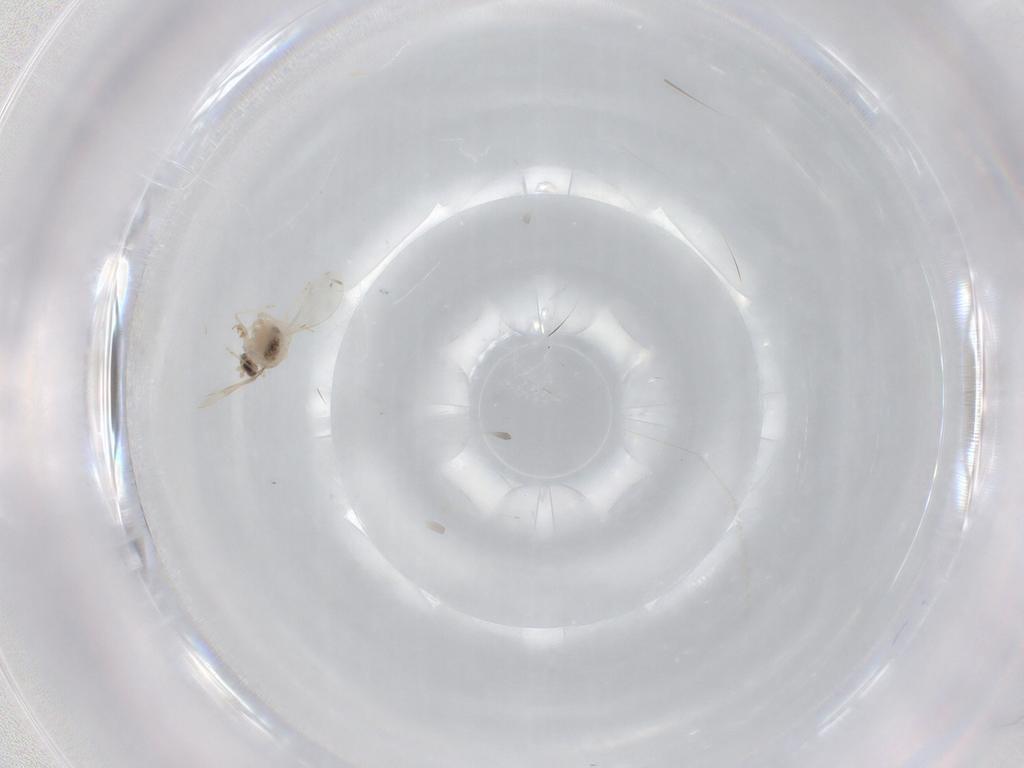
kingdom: Animalia
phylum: Arthropoda
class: Insecta
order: Diptera
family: Cecidomyiidae
